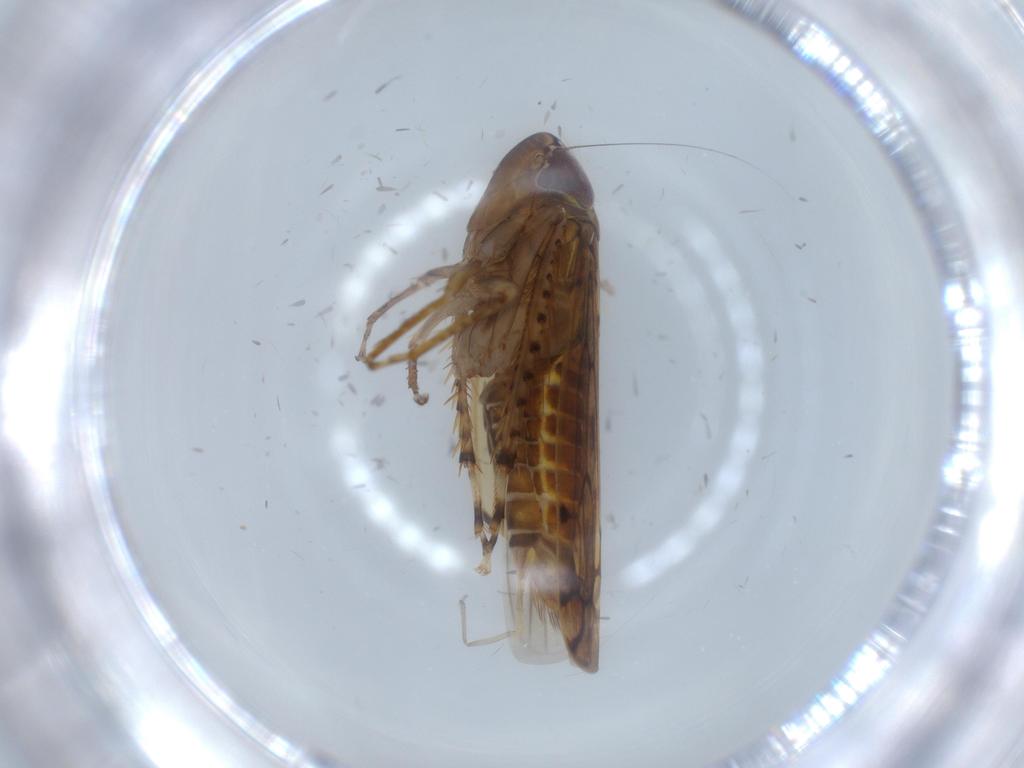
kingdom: Animalia
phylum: Arthropoda
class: Insecta
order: Hemiptera
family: Cicadellidae
